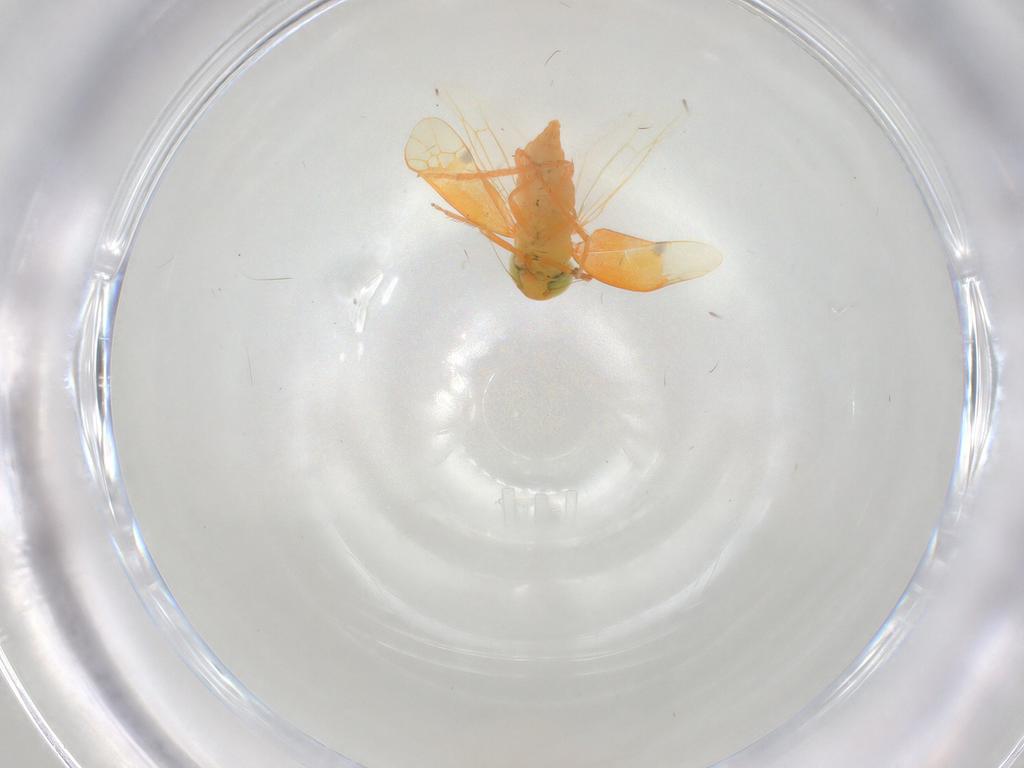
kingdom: Animalia
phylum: Arthropoda
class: Insecta
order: Hemiptera
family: Cicadellidae
